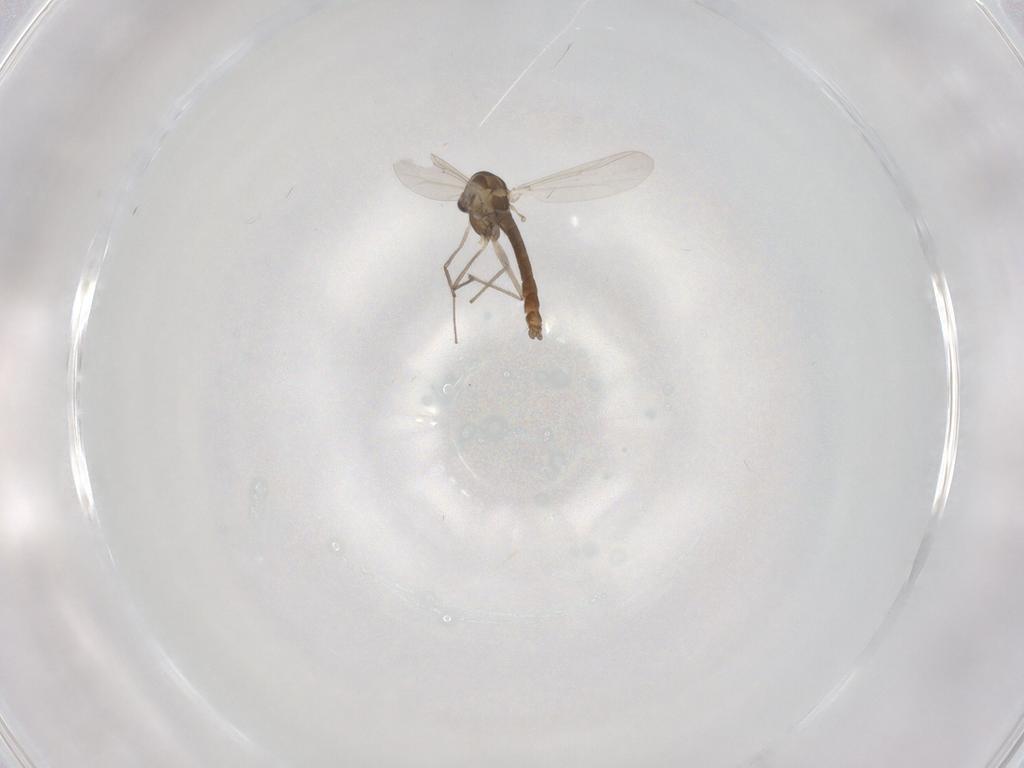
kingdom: Animalia
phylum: Arthropoda
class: Insecta
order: Diptera
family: Chironomidae
